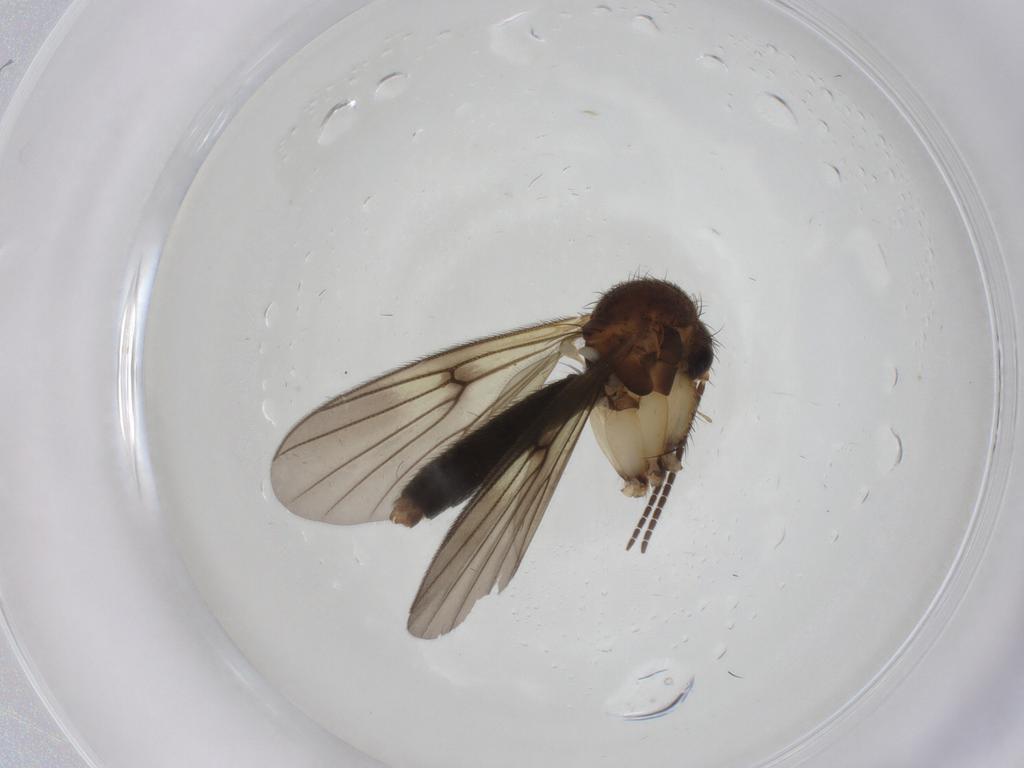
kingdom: Animalia
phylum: Arthropoda
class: Insecta
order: Diptera
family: Mycetophilidae
